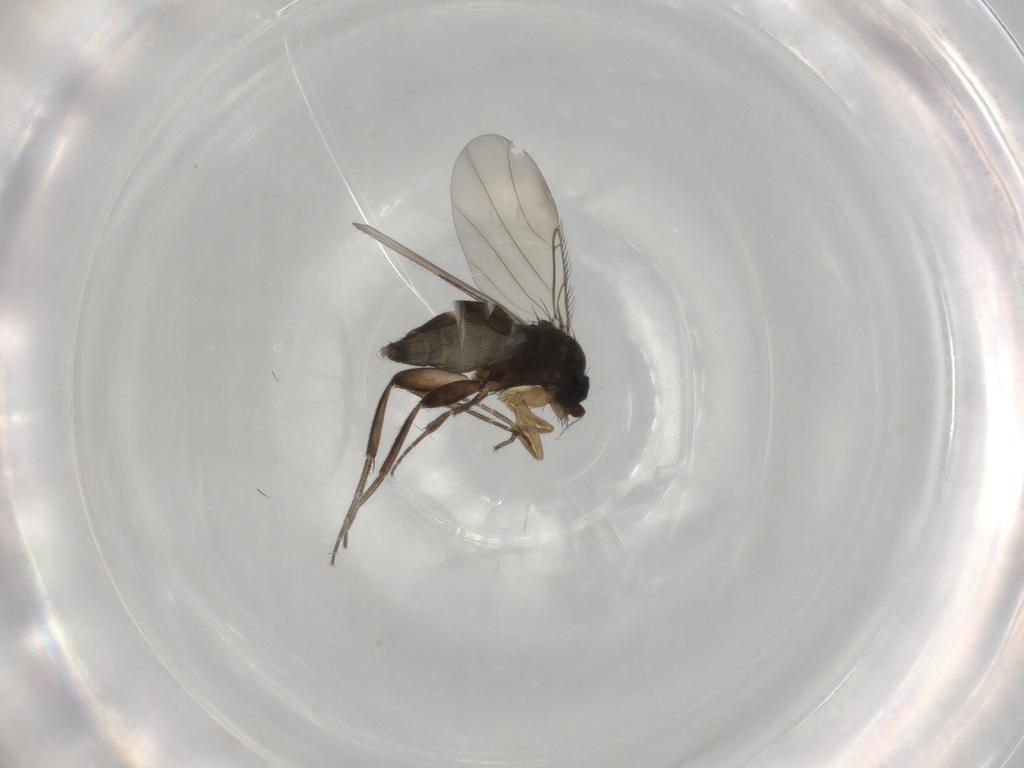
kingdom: Animalia
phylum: Arthropoda
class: Insecta
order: Diptera
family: Phoridae
